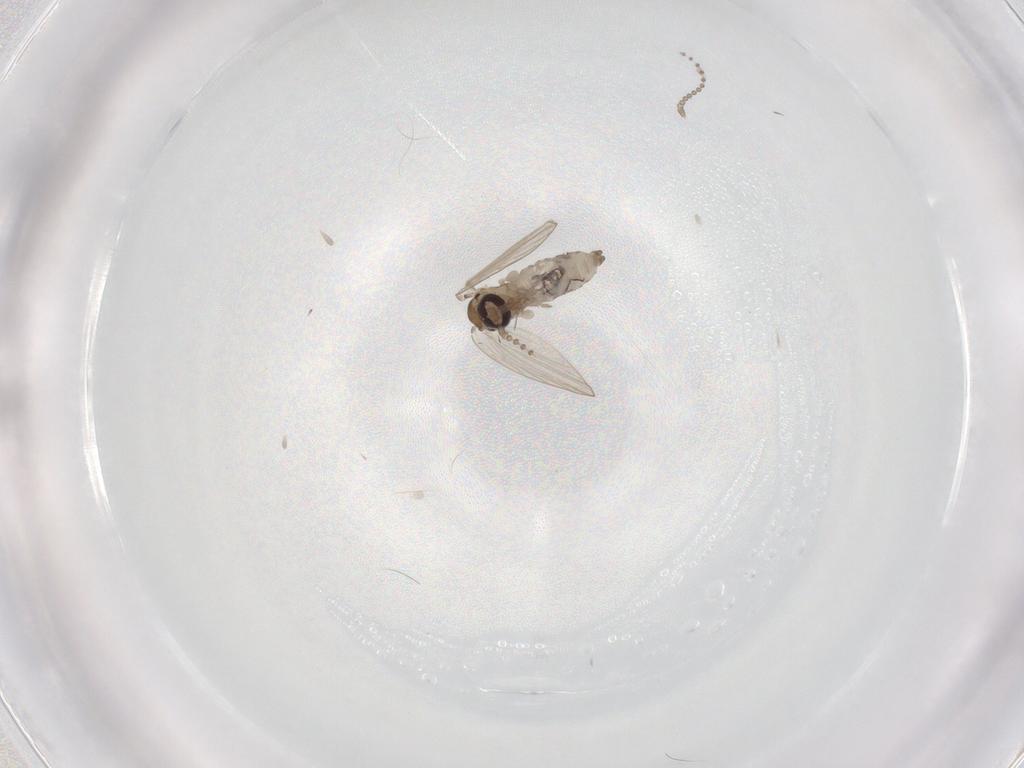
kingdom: Animalia
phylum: Arthropoda
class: Insecta
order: Diptera
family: Psychodidae
